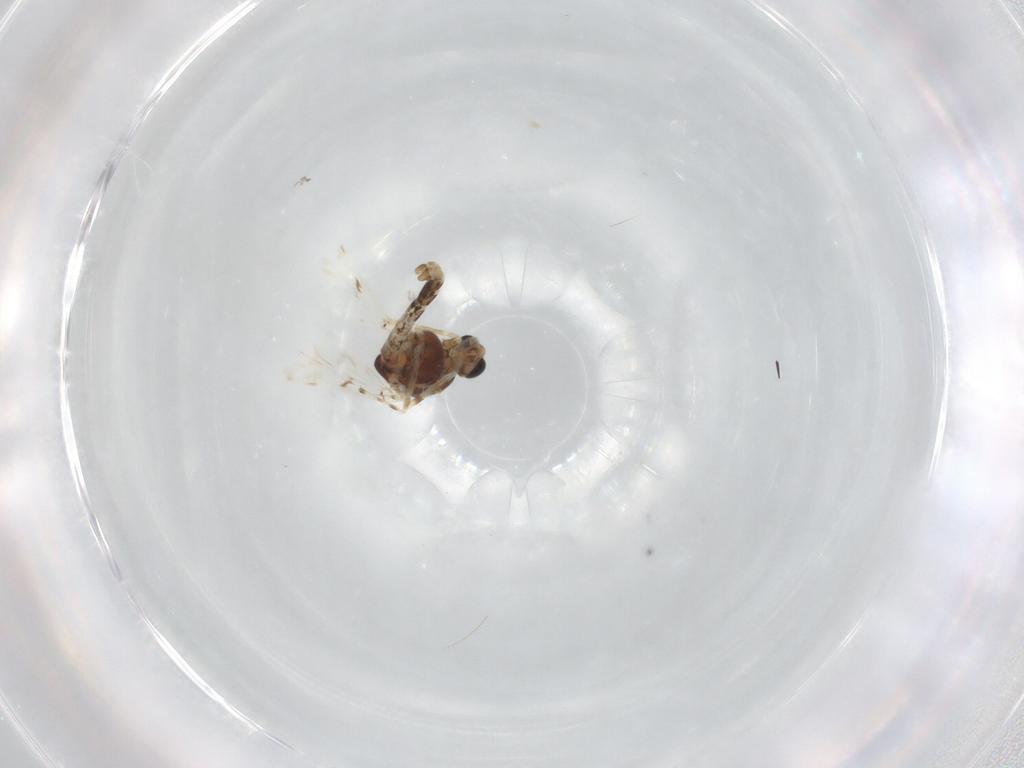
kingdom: Animalia
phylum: Arthropoda
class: Insecta
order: Diptera
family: Chironomidae
